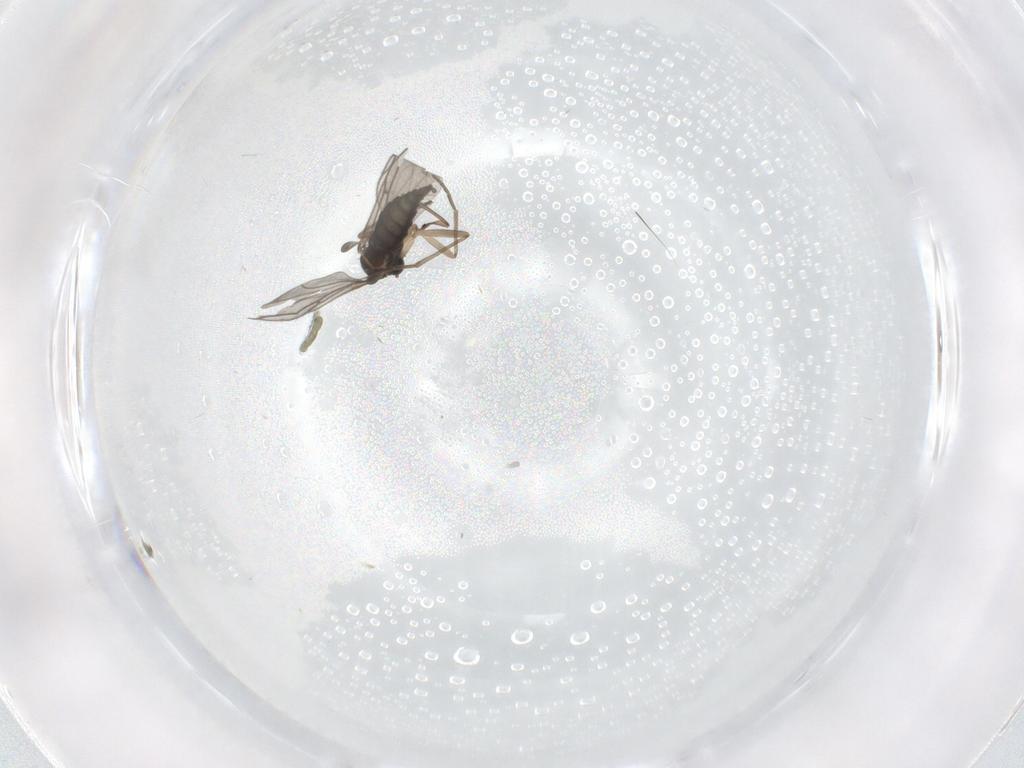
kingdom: Animalia
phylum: Arthropoda
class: Insecta
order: Diptera
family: Sciaridae
